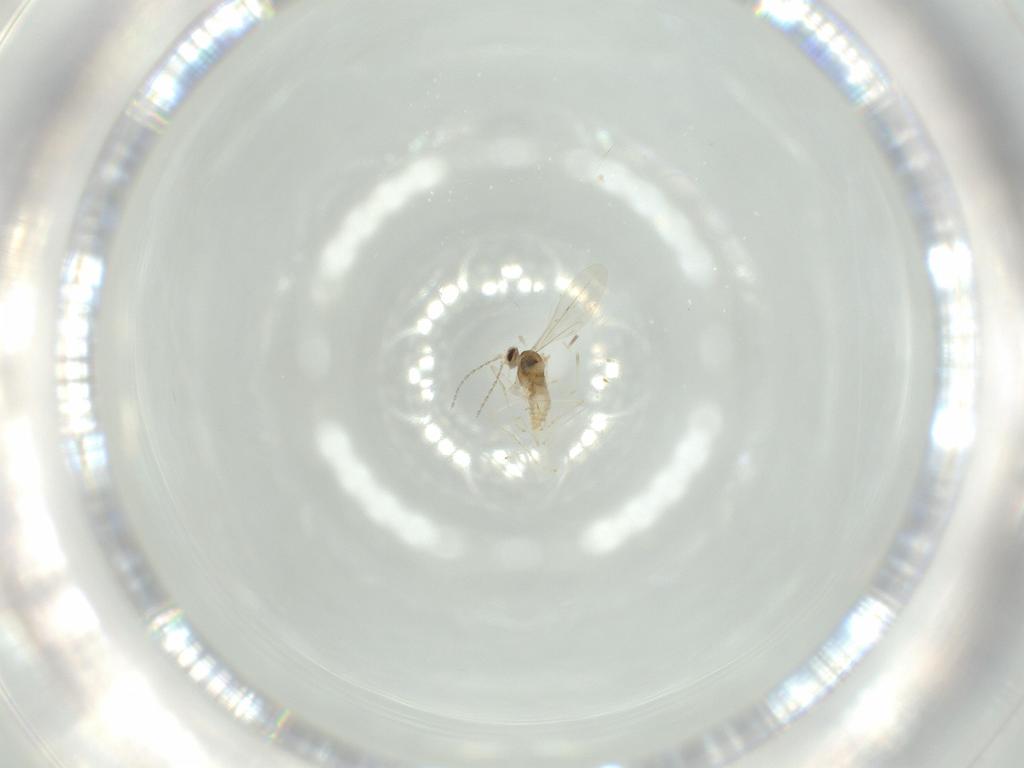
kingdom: Animalia
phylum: Arthropoda
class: Insecta
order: Diptera
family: Cecidomyiidae
